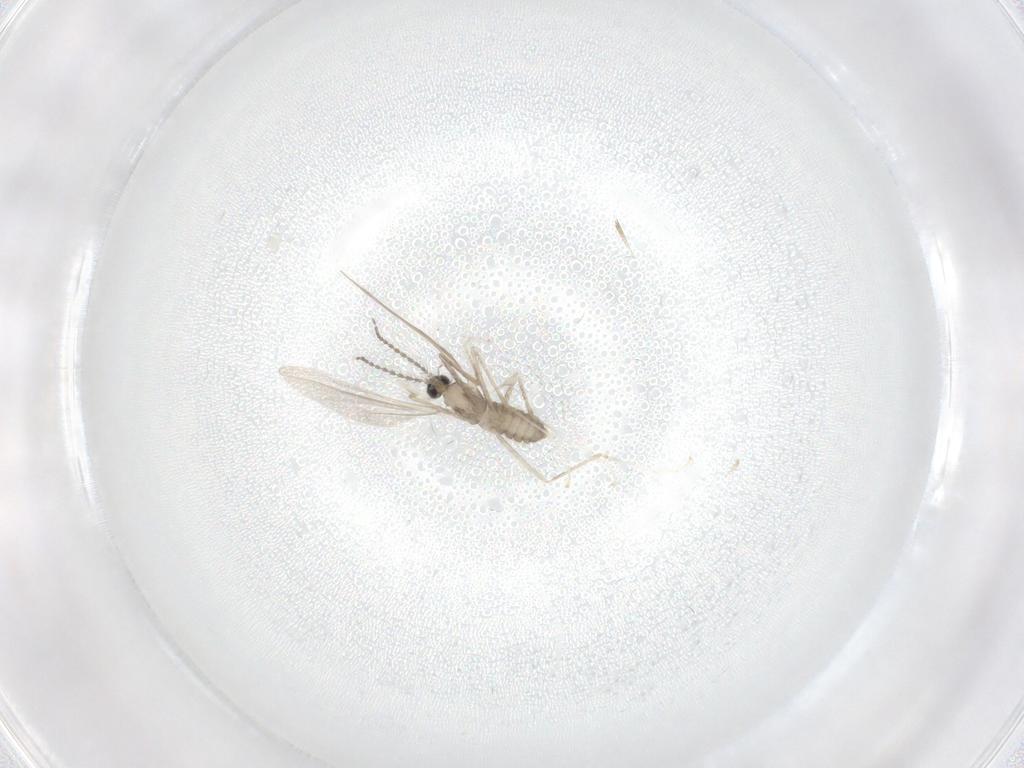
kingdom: Animalia
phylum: Arthropoda
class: Insecta
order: Diptera
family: Cecidomyiidae
